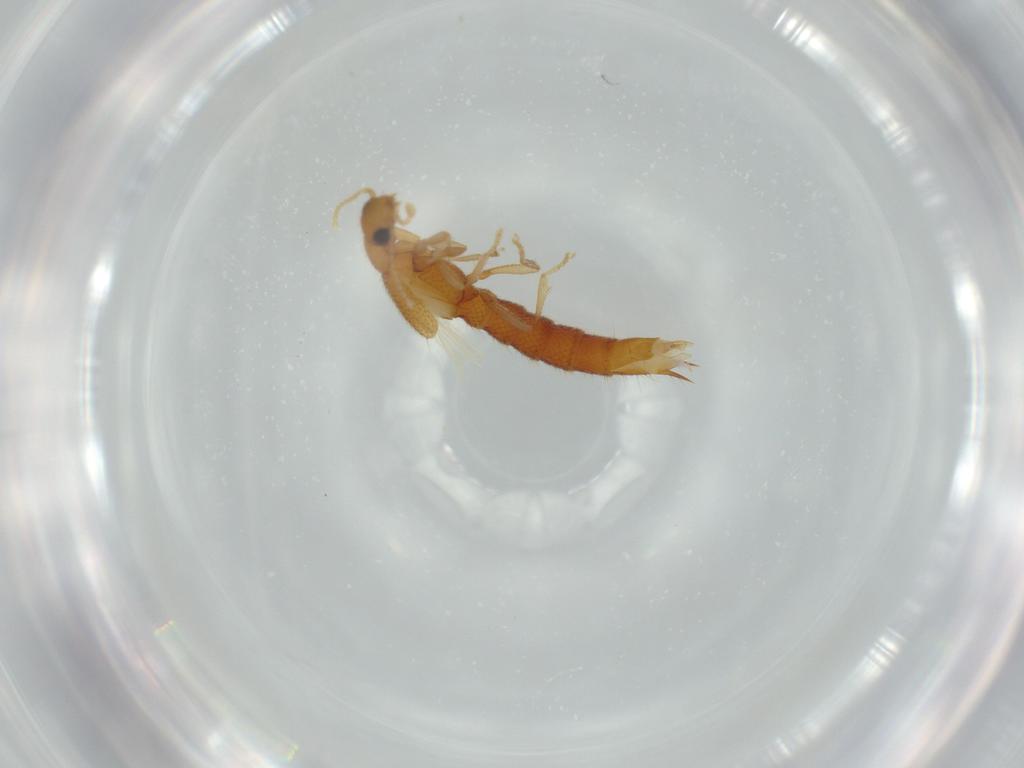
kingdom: Animalia
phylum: Arthropoda
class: Insecta
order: Coleoptera
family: Staphylinidae
